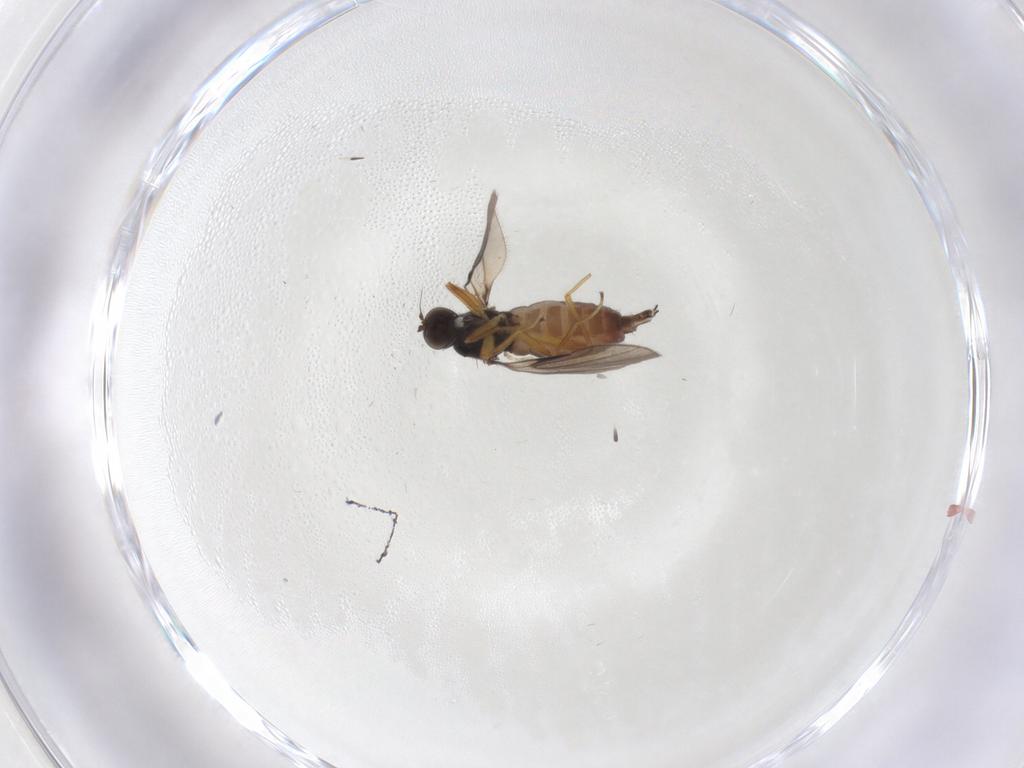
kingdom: Animalia
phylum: Arthropoda
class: Insecta
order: Diptera
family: Hybotidae
